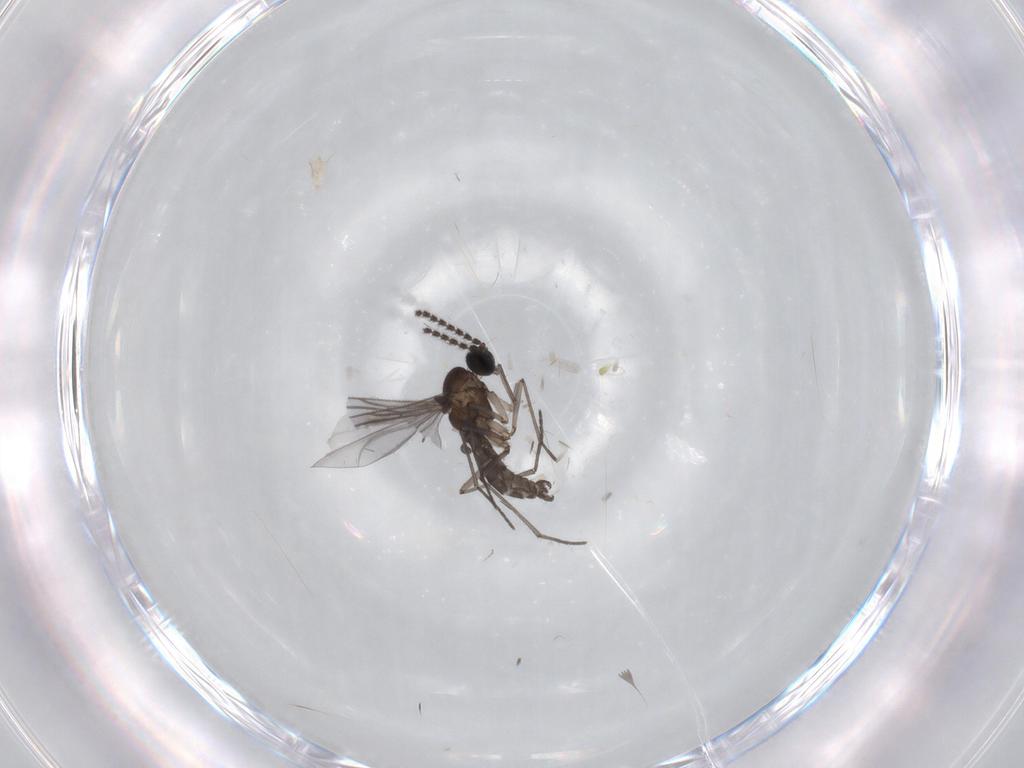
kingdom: Animalia
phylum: Arthropoda
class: Insecta
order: Diptera
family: Sciaridae
